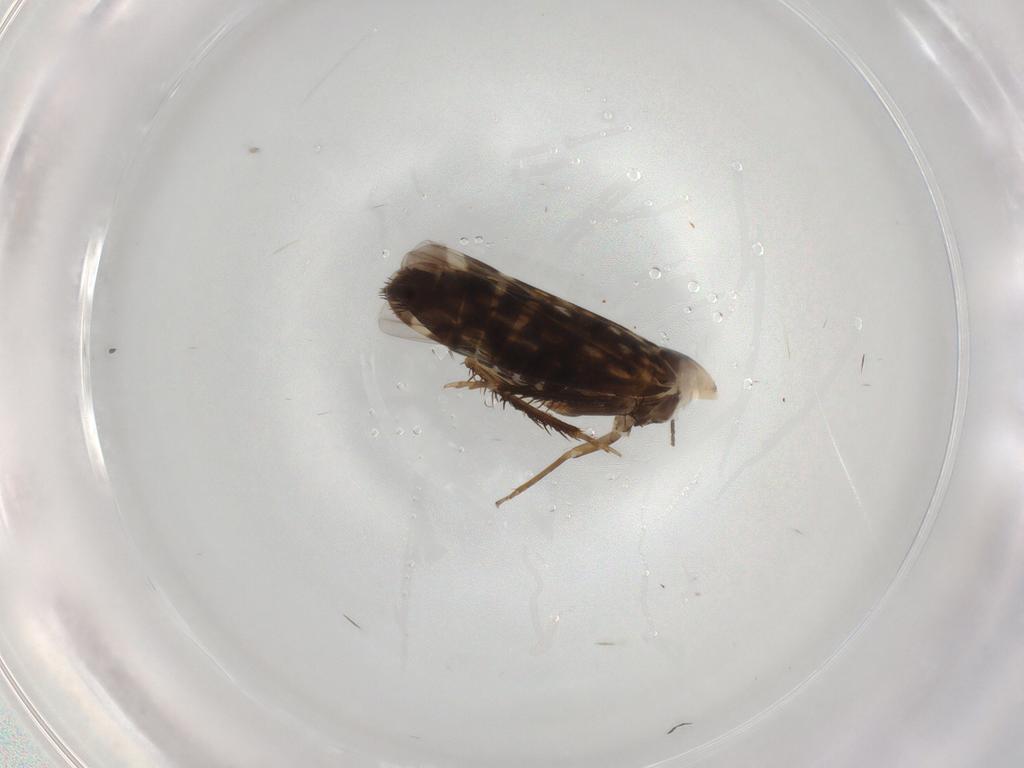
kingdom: Animalia
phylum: Arthropoda
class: Insecta
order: Hemiptera
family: Cicadellidae
